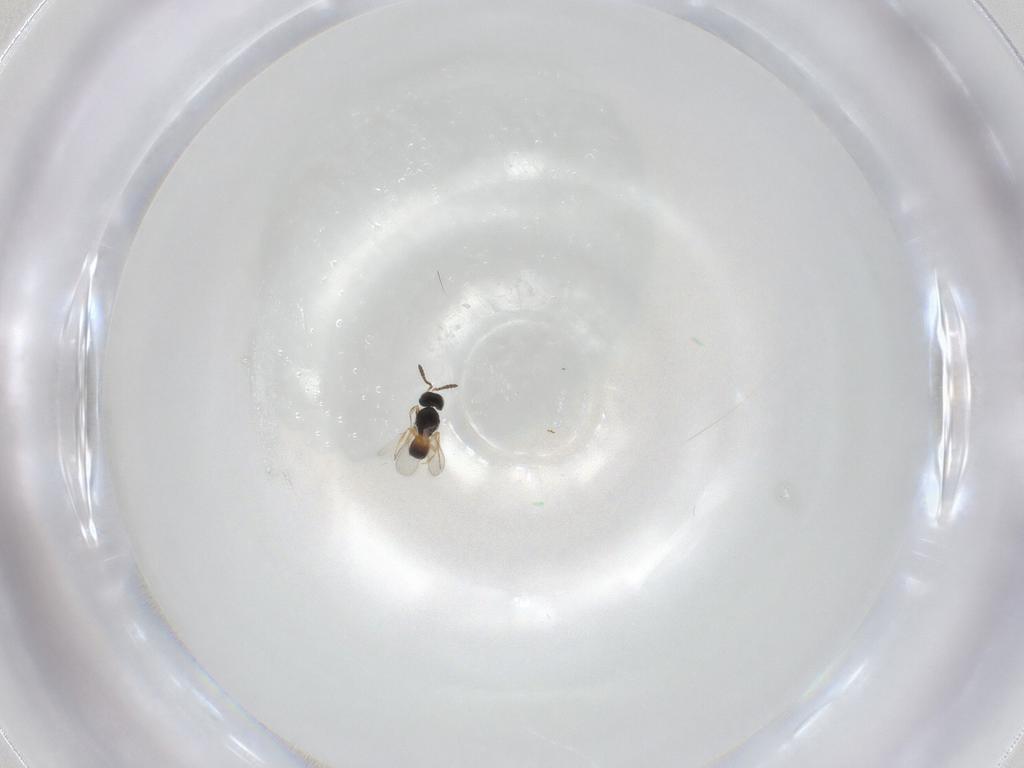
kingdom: Animalia
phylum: Arthropoda
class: Insecta
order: Hymenoptera
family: Scelionidae
